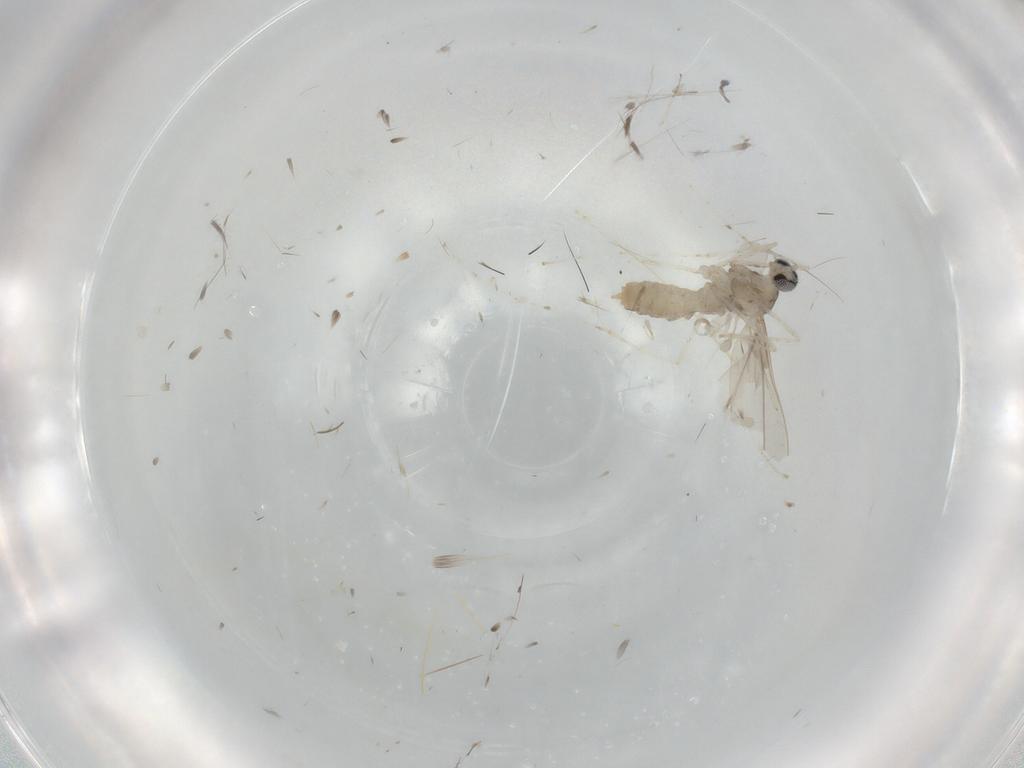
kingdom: Animalia
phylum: Arthropoda
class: Insecta
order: Diptera
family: Cecidomyiidae
